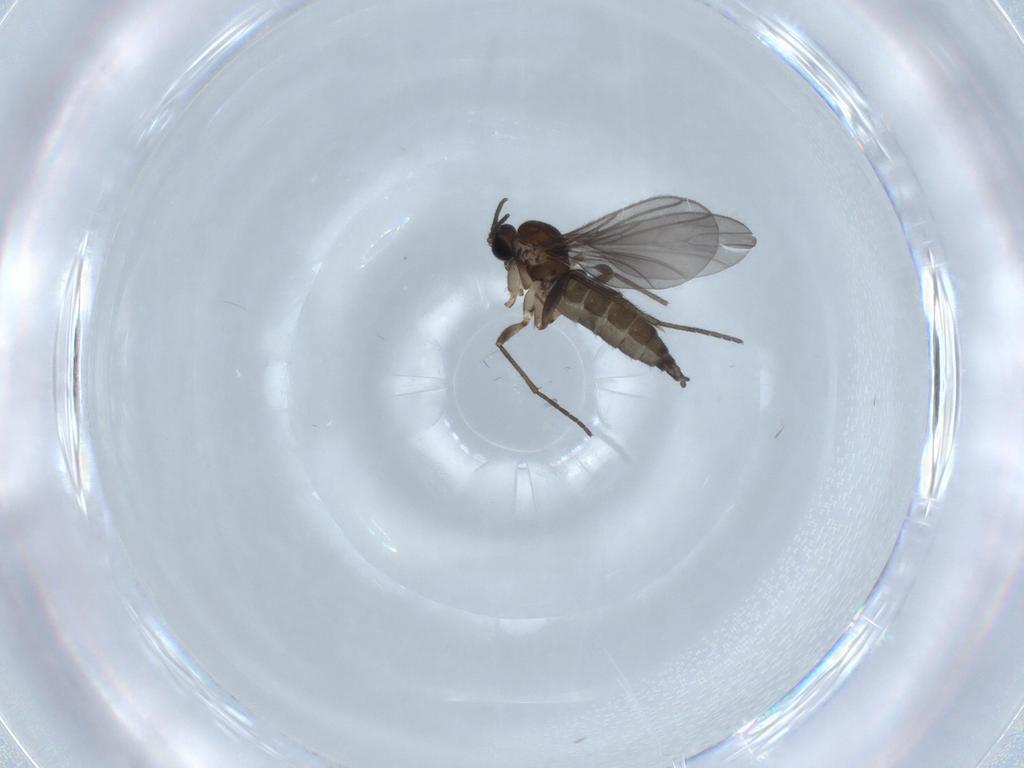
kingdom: Animalia
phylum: Arthropoda
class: Insecta
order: Diptera
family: Sciaridae
